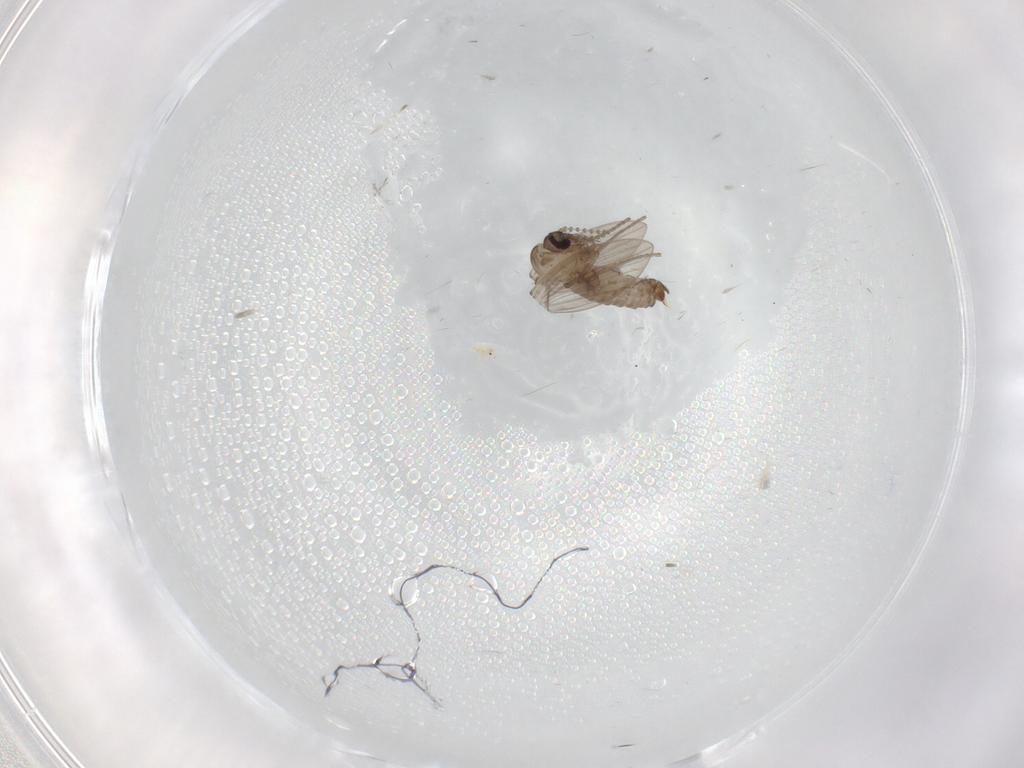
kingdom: Animalia
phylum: Arthropoda
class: Insecta
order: Diptera
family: Psychodidae
